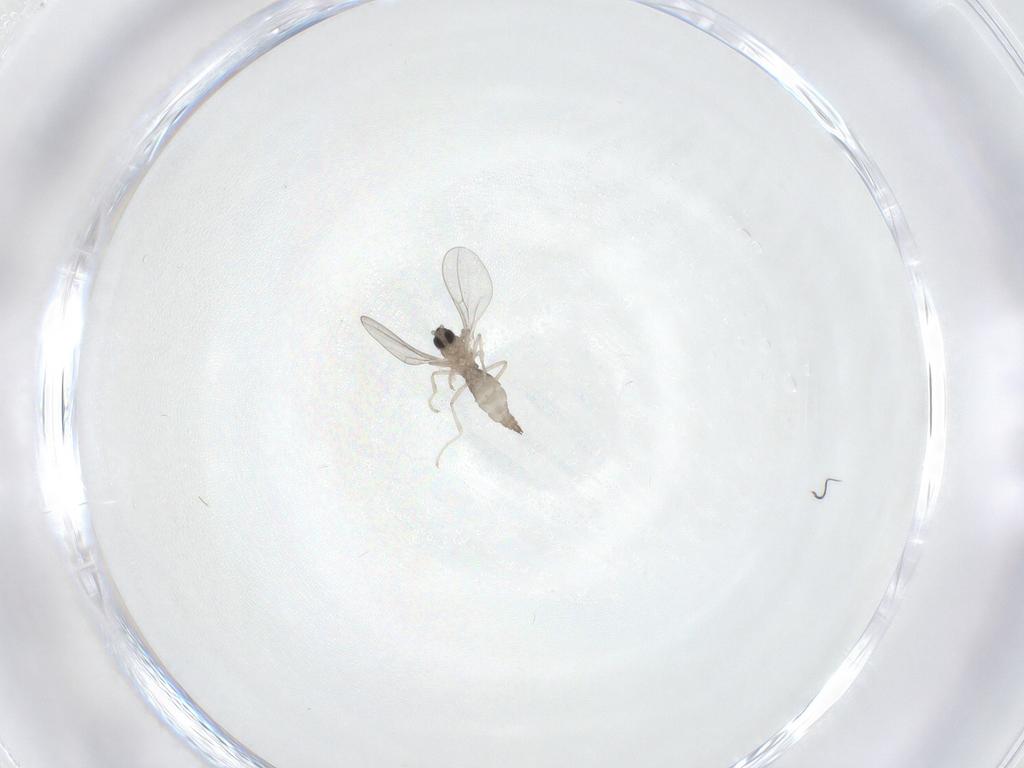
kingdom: Animalia
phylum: Arthropoda
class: Insecta
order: Diptera
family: Cecidomyiidae
